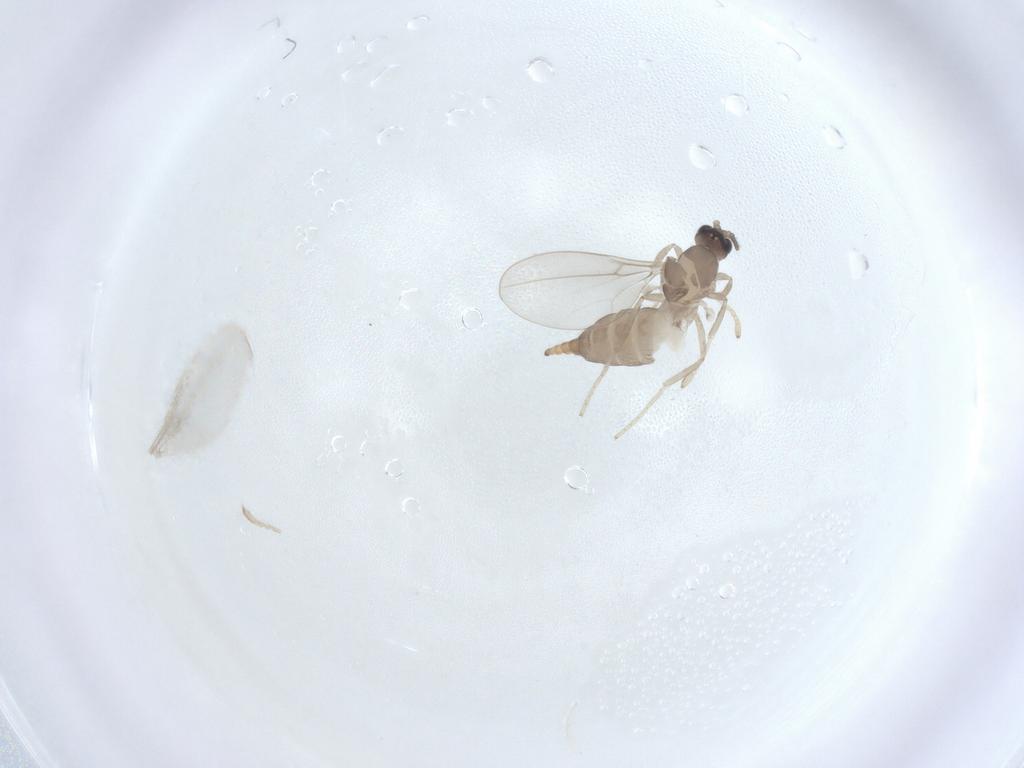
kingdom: Animalia
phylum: Arthropoda
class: Insecta
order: Diptera
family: Cecidomyiidae
